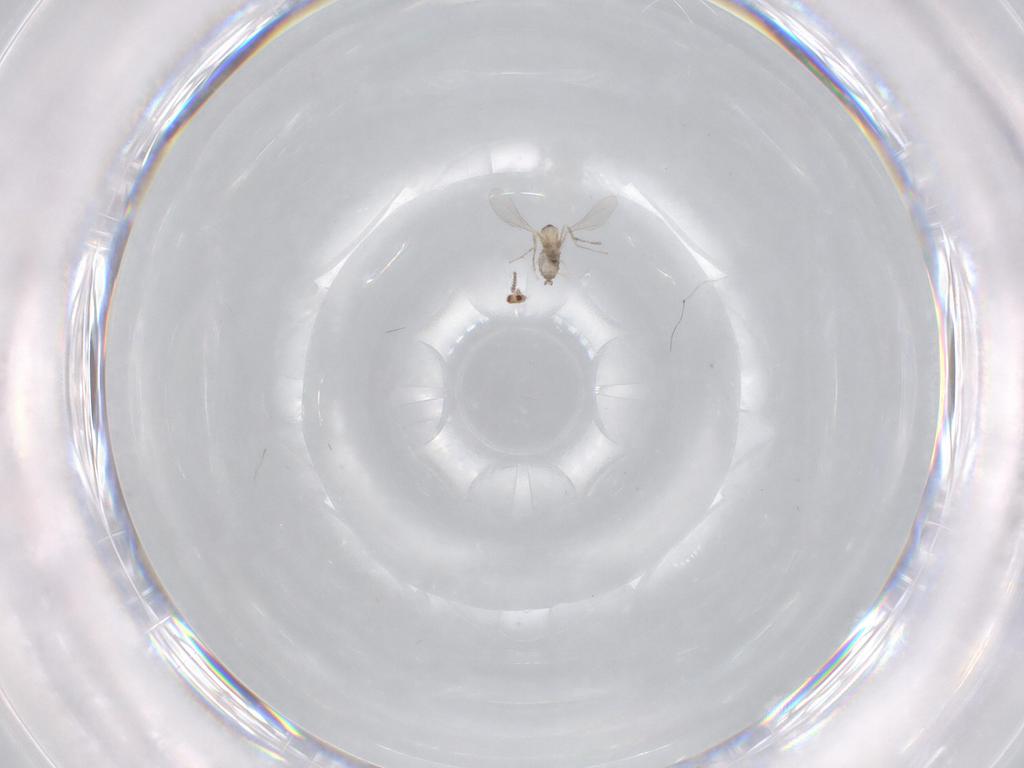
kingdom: Animalia
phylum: Arthropoda
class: Insecta
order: Diptera
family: Cecidomyiidae
